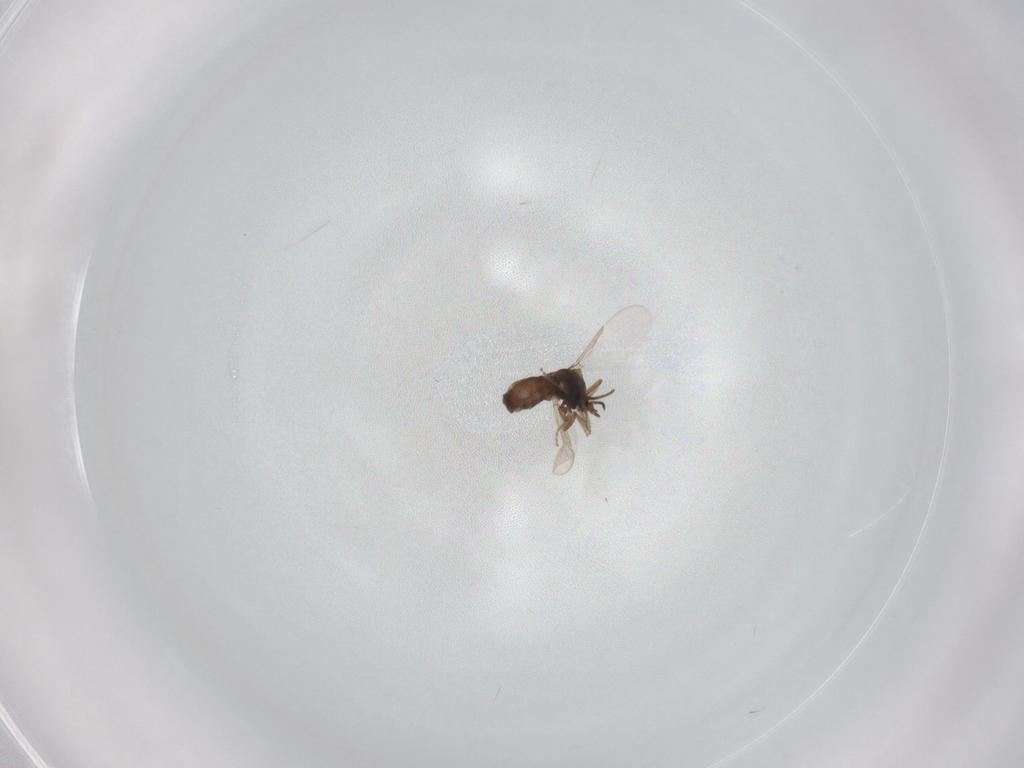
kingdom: Animalia
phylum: Arthropoda
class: Insecta
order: Diptera
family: Ceratopogonidae
